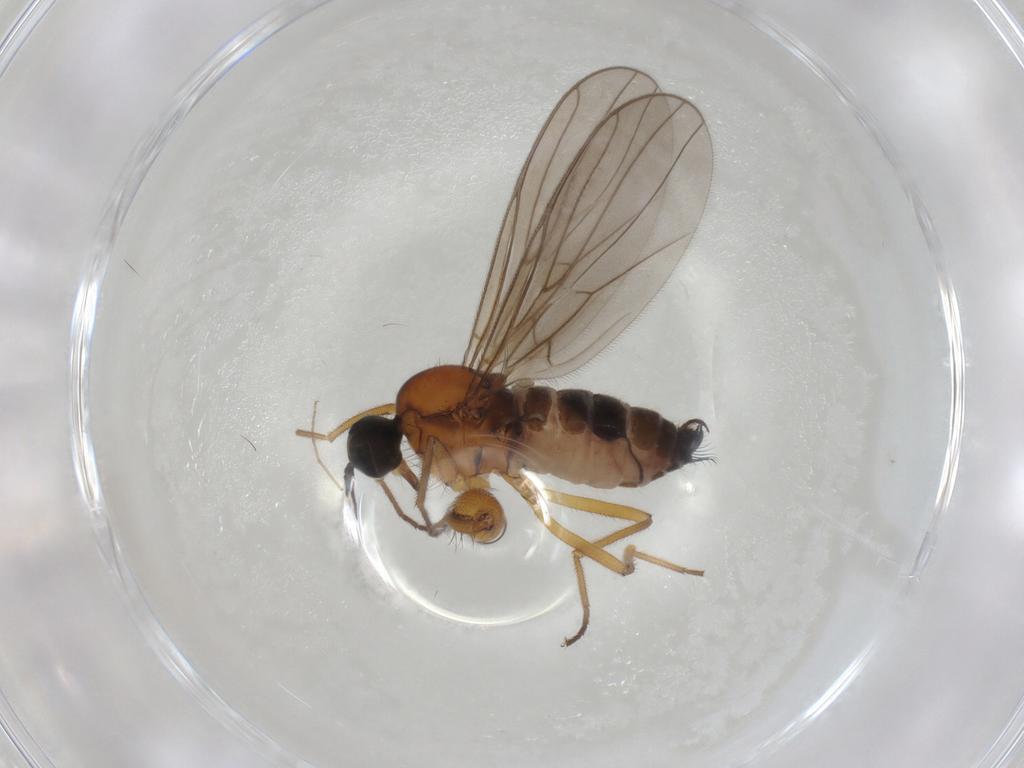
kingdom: Animalia
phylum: Arthropoda
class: Insecta
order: Diptera
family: Hybotidae
